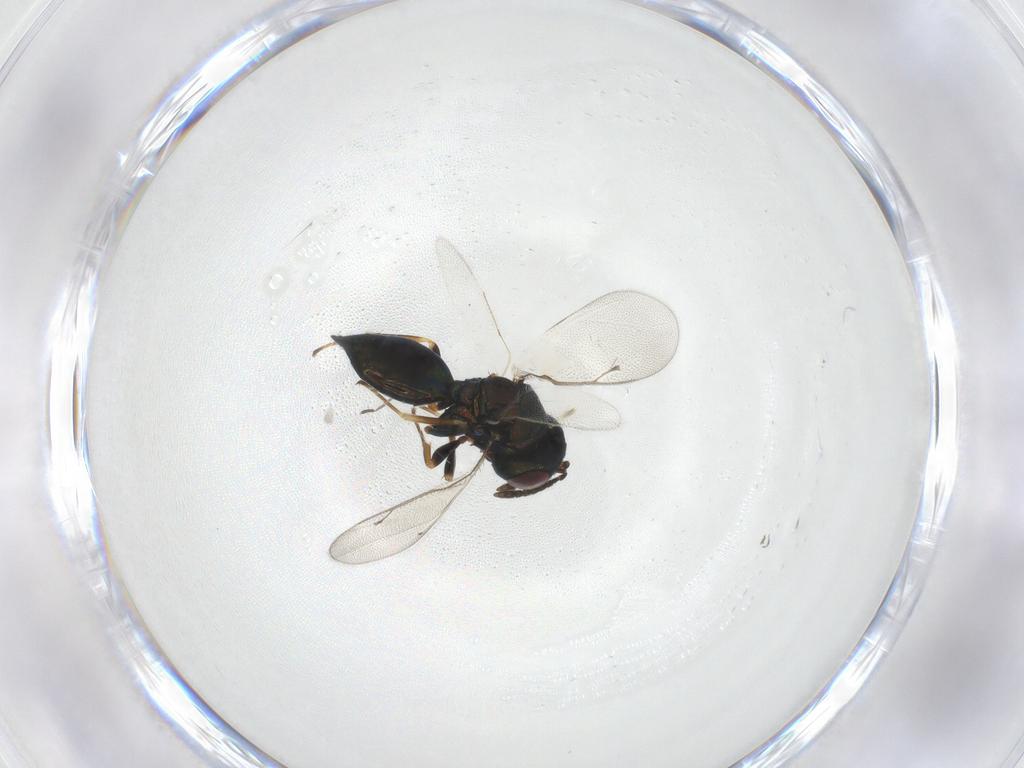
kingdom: Animalia
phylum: Arthropoda
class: Insecta
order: Hymenoptera
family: Pteromalidae
